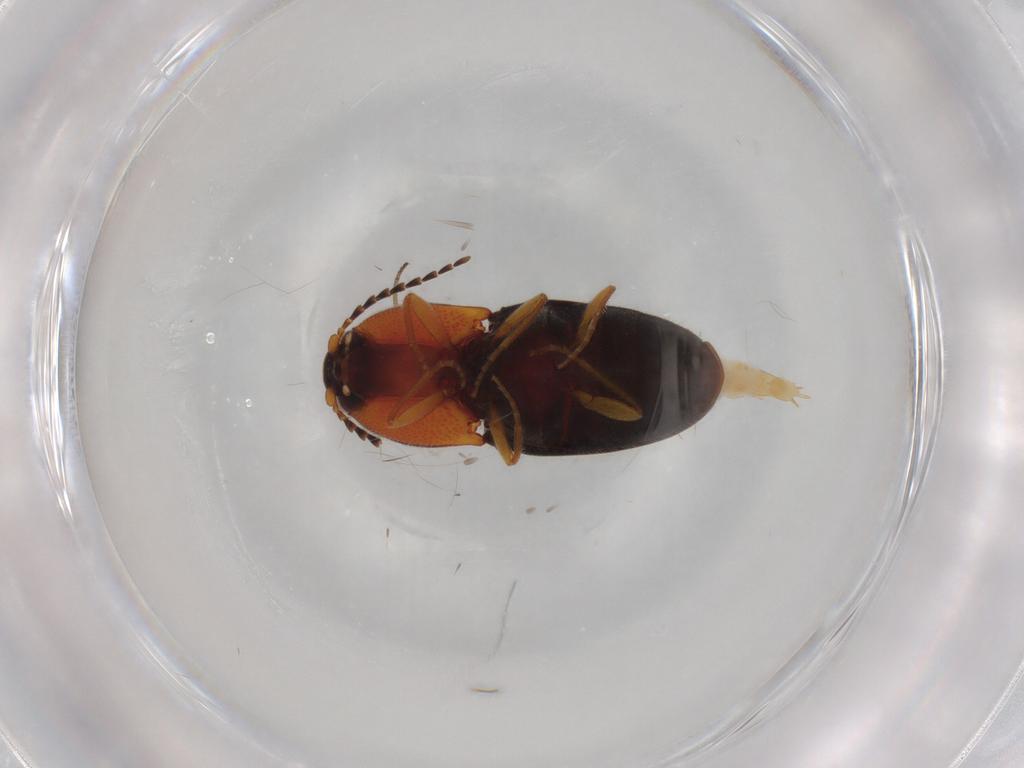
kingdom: Animalia
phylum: Arthropoda
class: Insecta
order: Coleoptera
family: Elateridae
